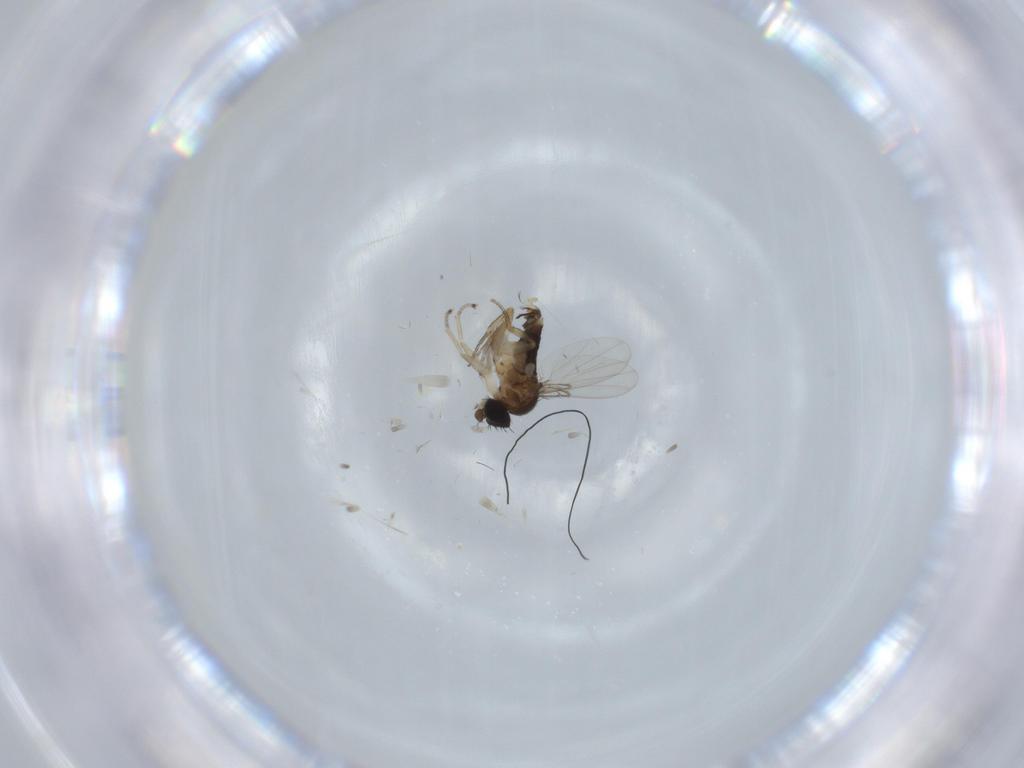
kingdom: Animalia
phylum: Arthropoda
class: Insecta
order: Diptera
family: Phoridae
